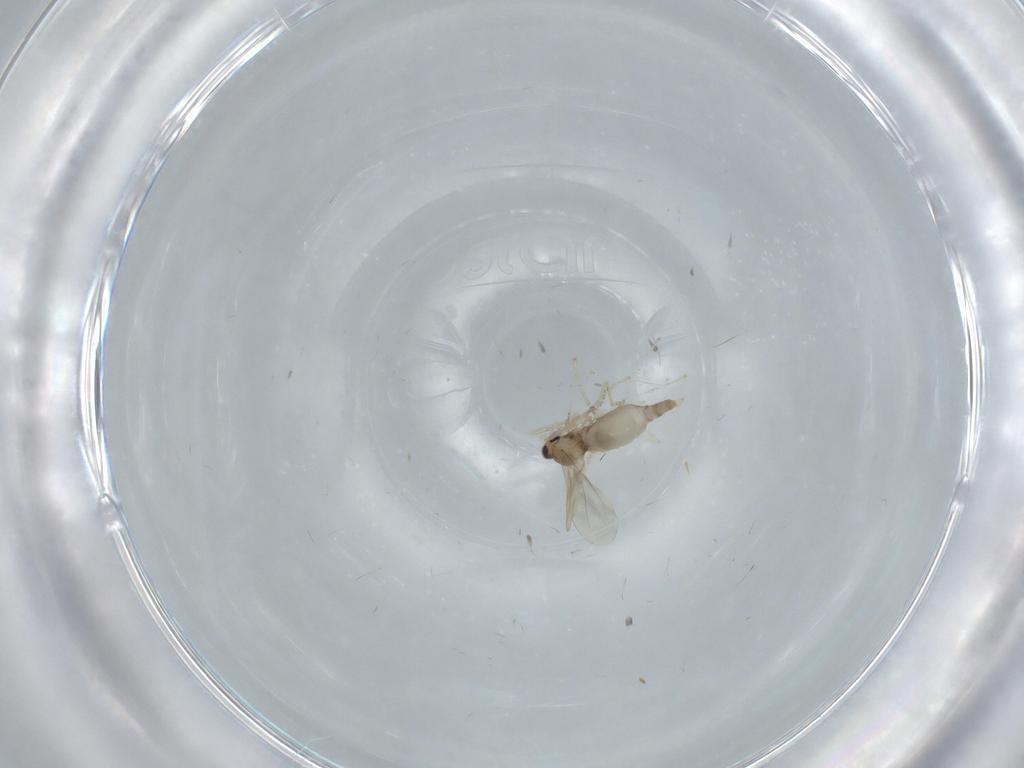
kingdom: Animalia
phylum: Arthropoda
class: Insecta
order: Diptera
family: Cecidomyiidae
